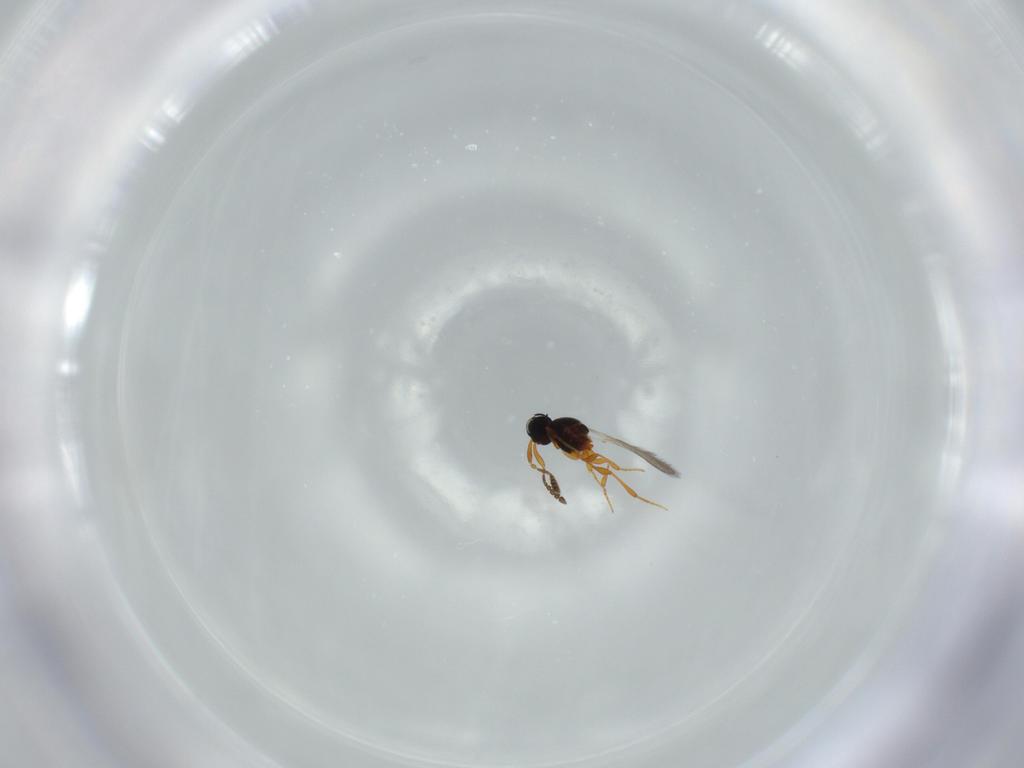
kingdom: Animalia
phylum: Arthropoda
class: Insecta
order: Hymenoptera
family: Platygastridae
